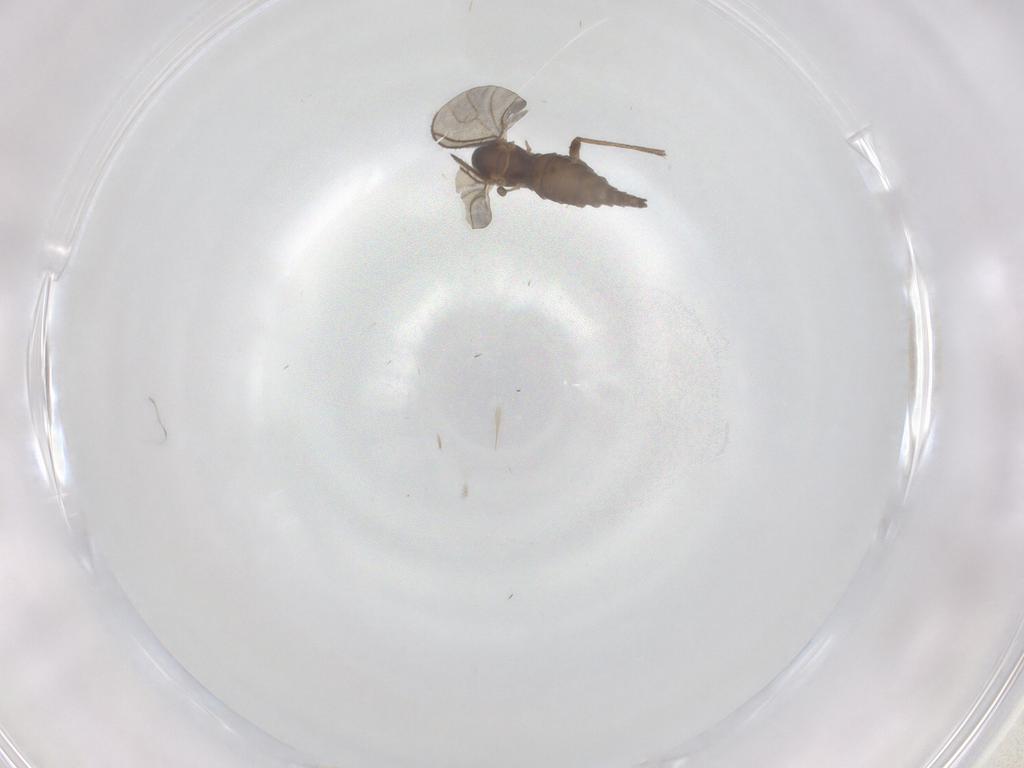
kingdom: Animalia
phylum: Arthropoda
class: Insecta
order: Diptera
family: Sciaridae
